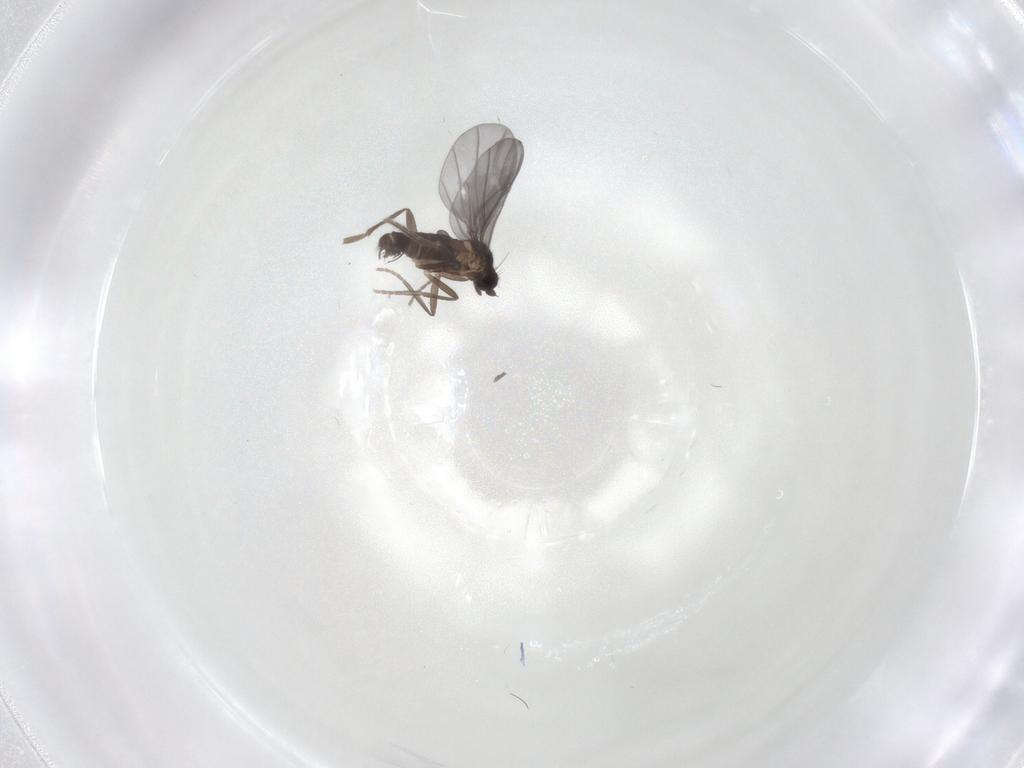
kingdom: Animalia
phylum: Arthropoda
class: Insecta
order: Diptera
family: Phoridae
